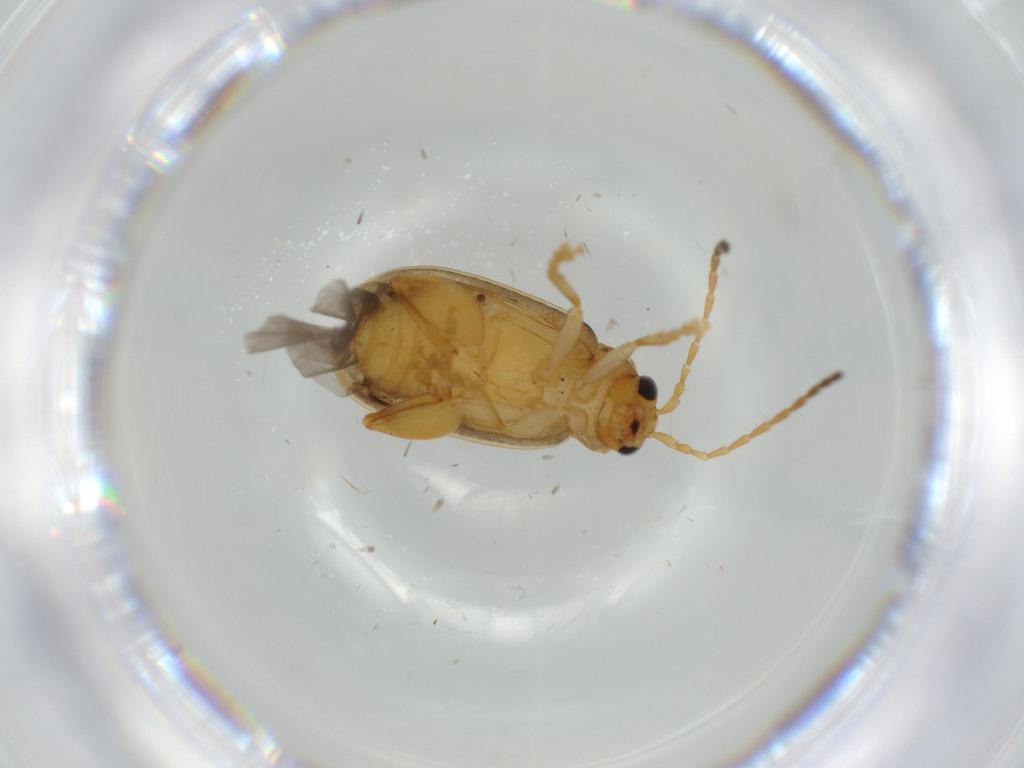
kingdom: Animalia
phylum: Arthropoda
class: Insecta
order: Coleoptera
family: Chrysomelidae
